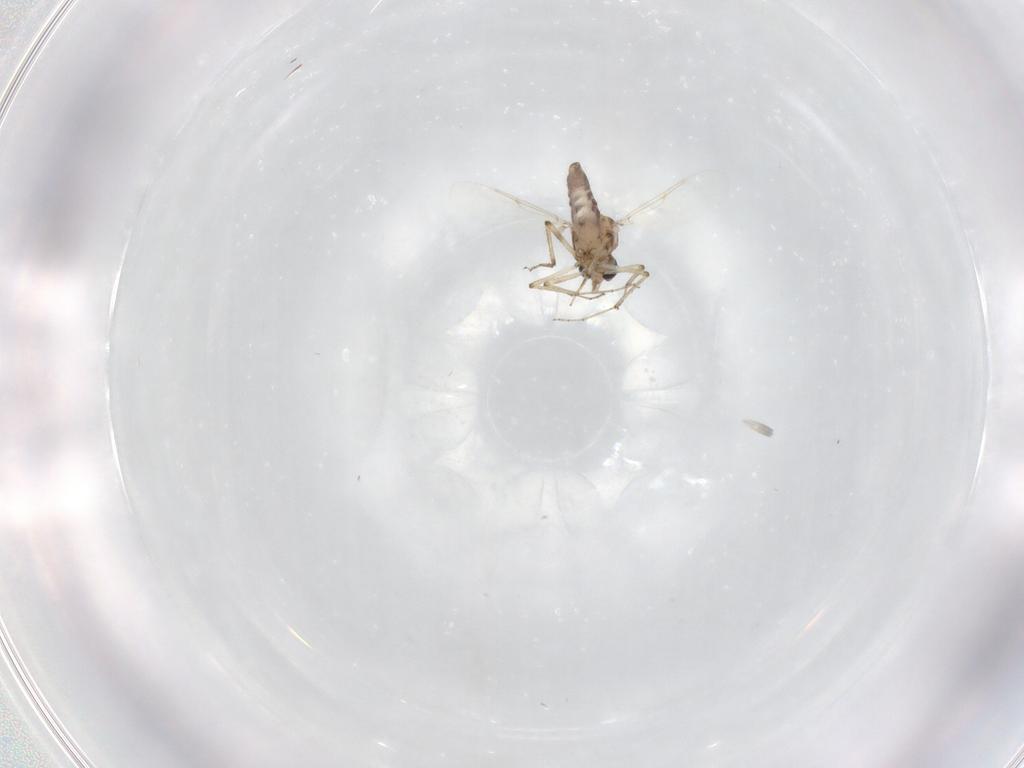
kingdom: Animalia
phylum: Arthropoda
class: Insecta
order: Diptera
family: Ceratopogonidae
